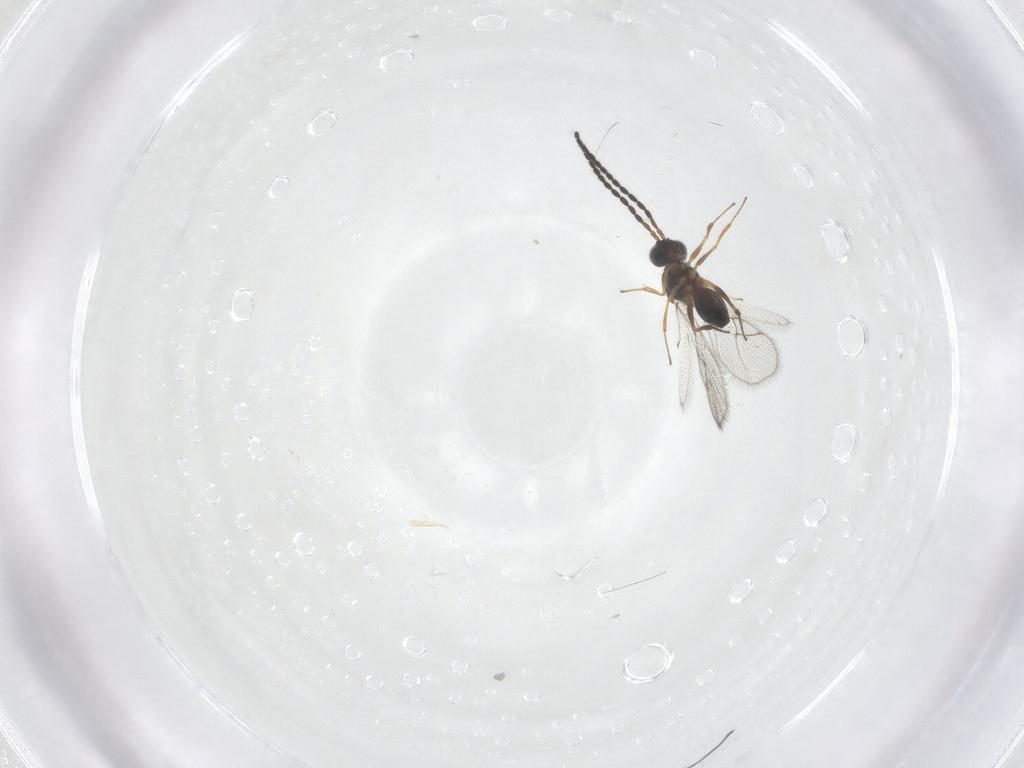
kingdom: Animalia
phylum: Arthropoda
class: Insecta
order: Hymenoptera
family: Figitidae
